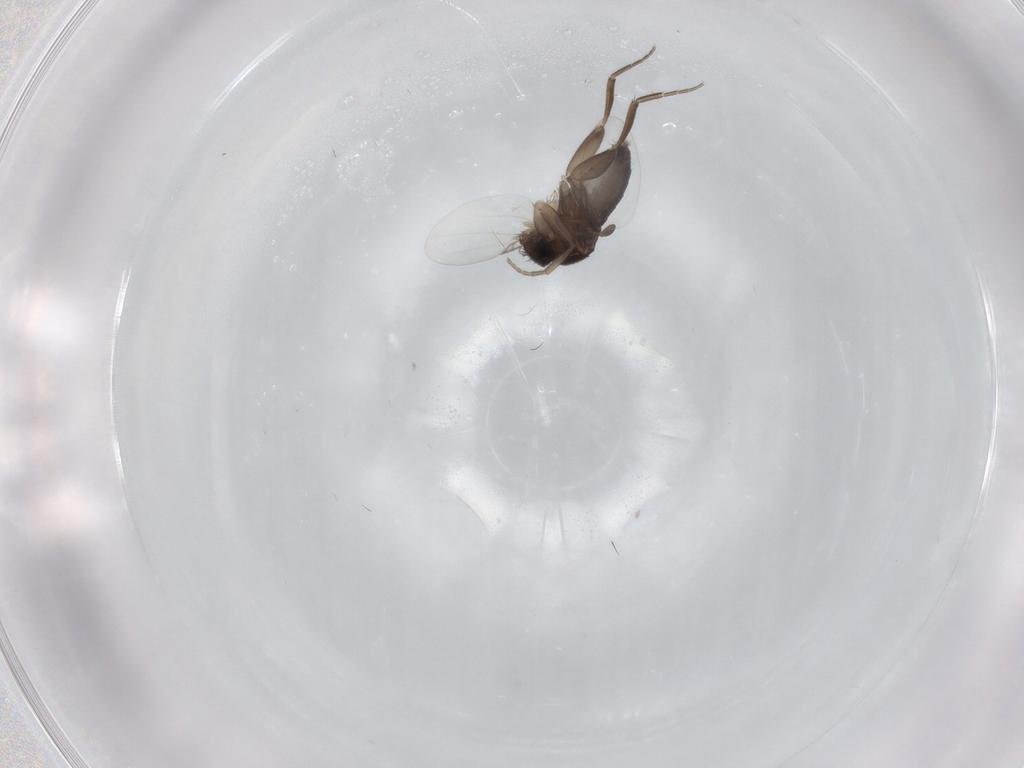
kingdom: Animalia
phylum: Arthropoda
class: Insecta
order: Diptera
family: Phoridae
